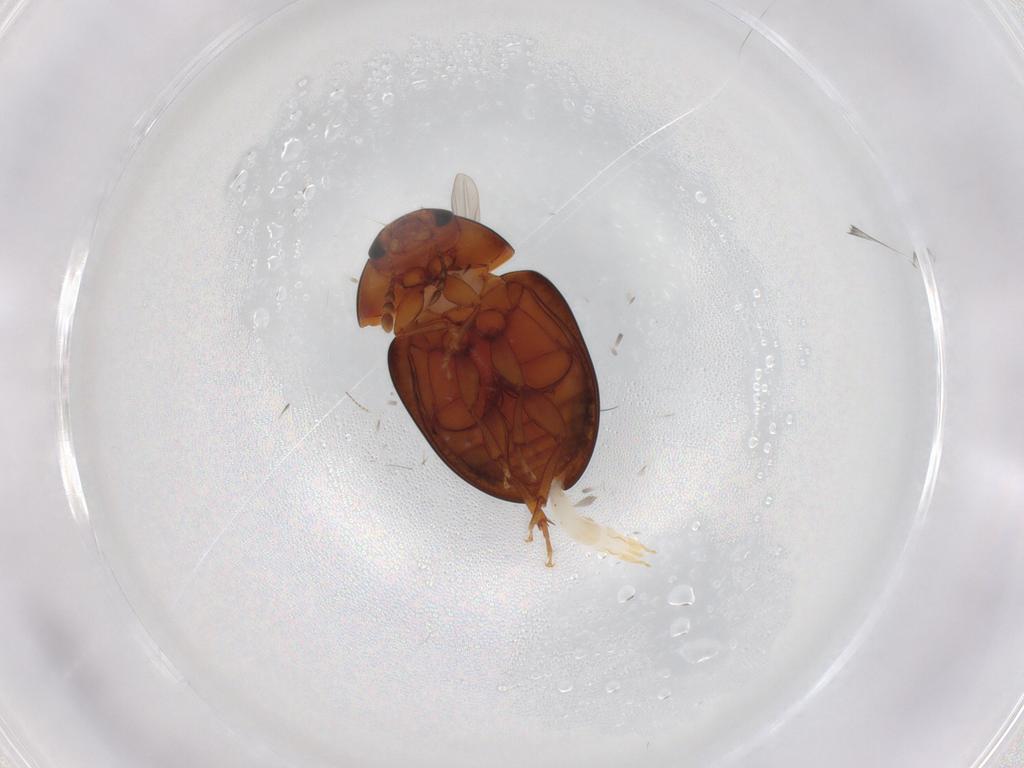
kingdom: Animalia
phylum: Arthropoda
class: Insecta
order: Coleoptera
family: Phalacridae
